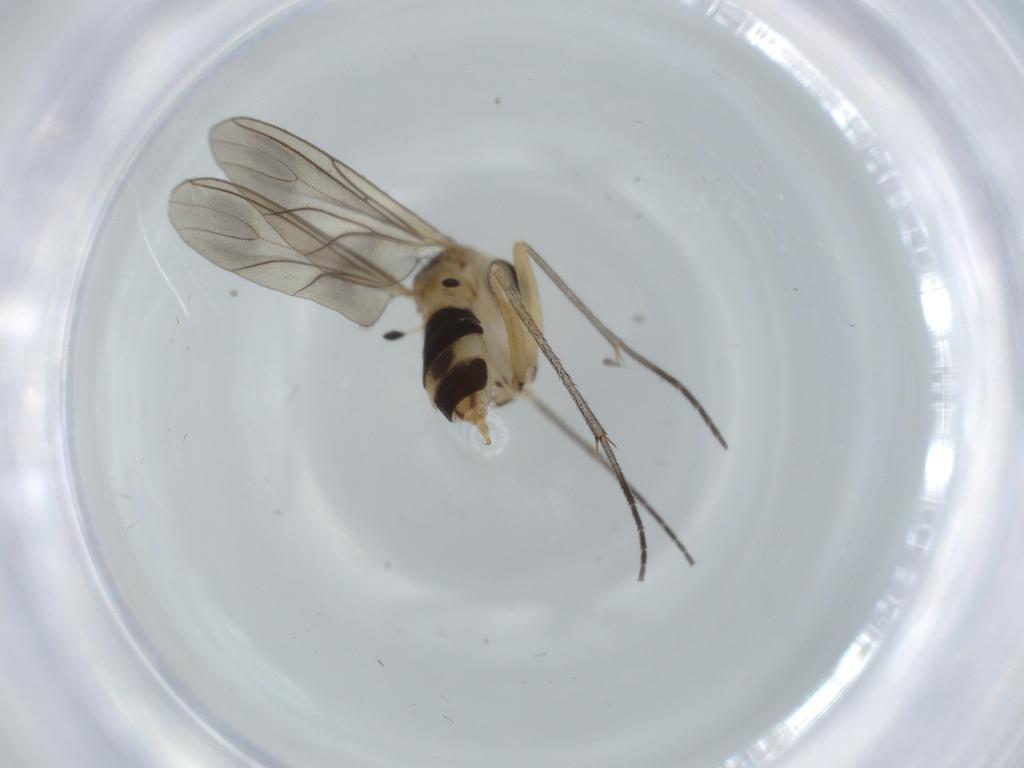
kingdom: Animalia
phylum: Arthropoda
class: Insecta
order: Diptera
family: Sciaridae
